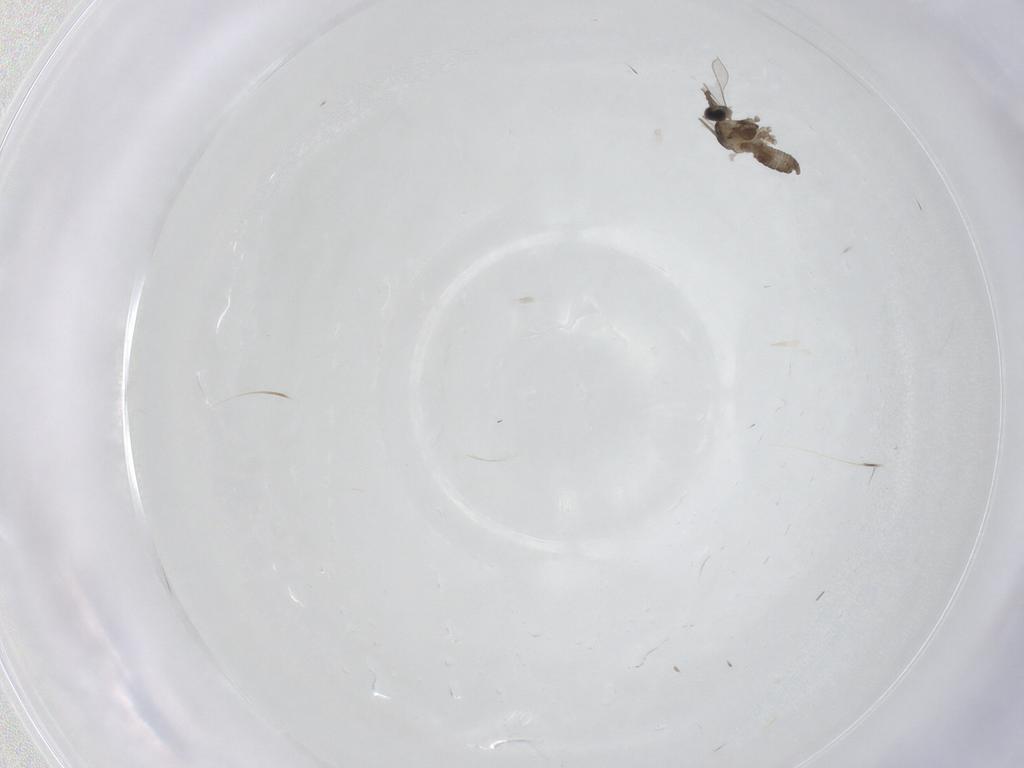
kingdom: Animalia
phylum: Arthropoda
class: Insecta
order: Diptera
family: Cecidomyiidae
